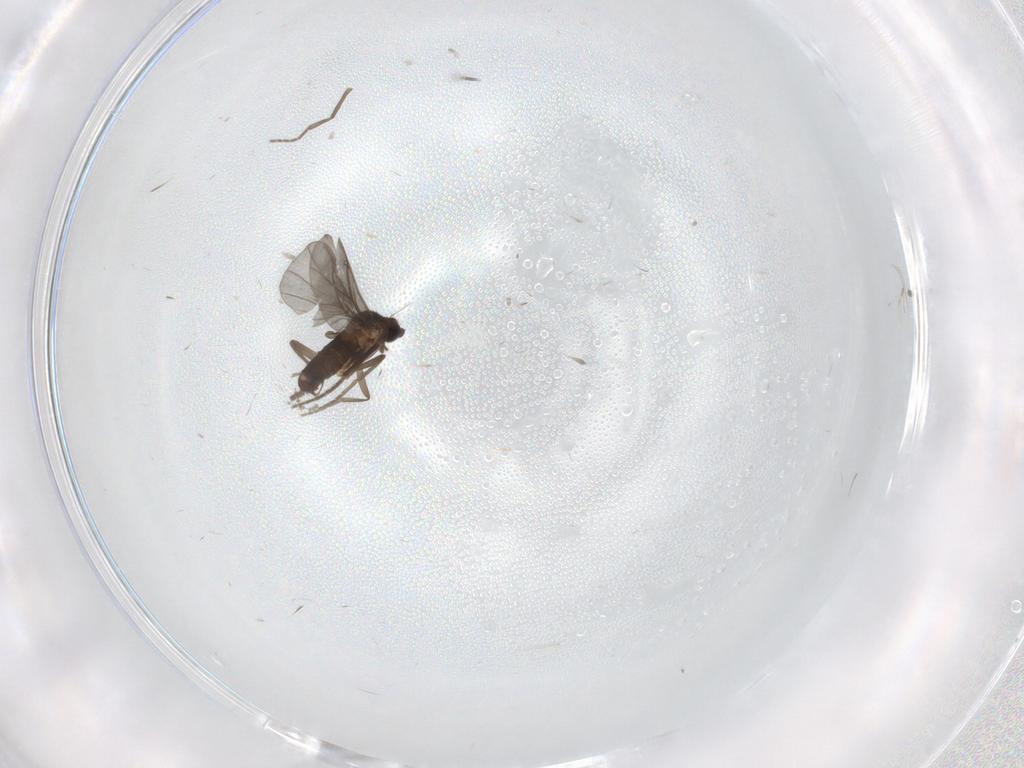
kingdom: Animalia
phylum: Arthropoda
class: Insecta
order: Diptera
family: Phoridae
